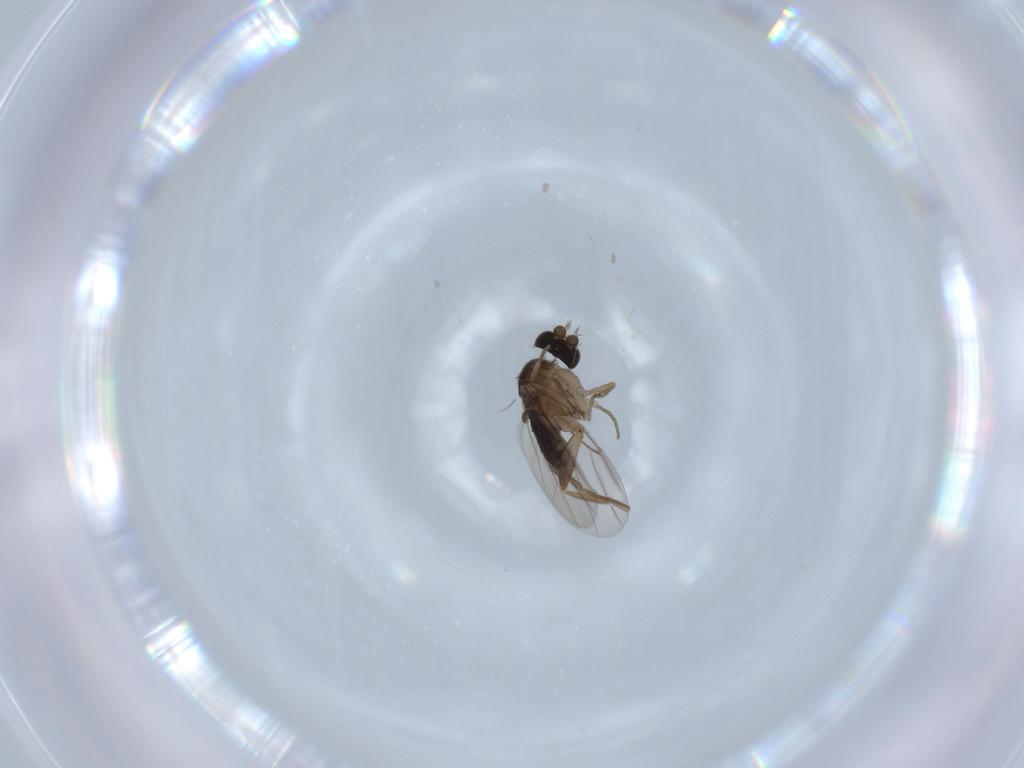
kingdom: Animalia
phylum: Arthropoda
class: Insecta
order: Diptera
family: Phoridae
